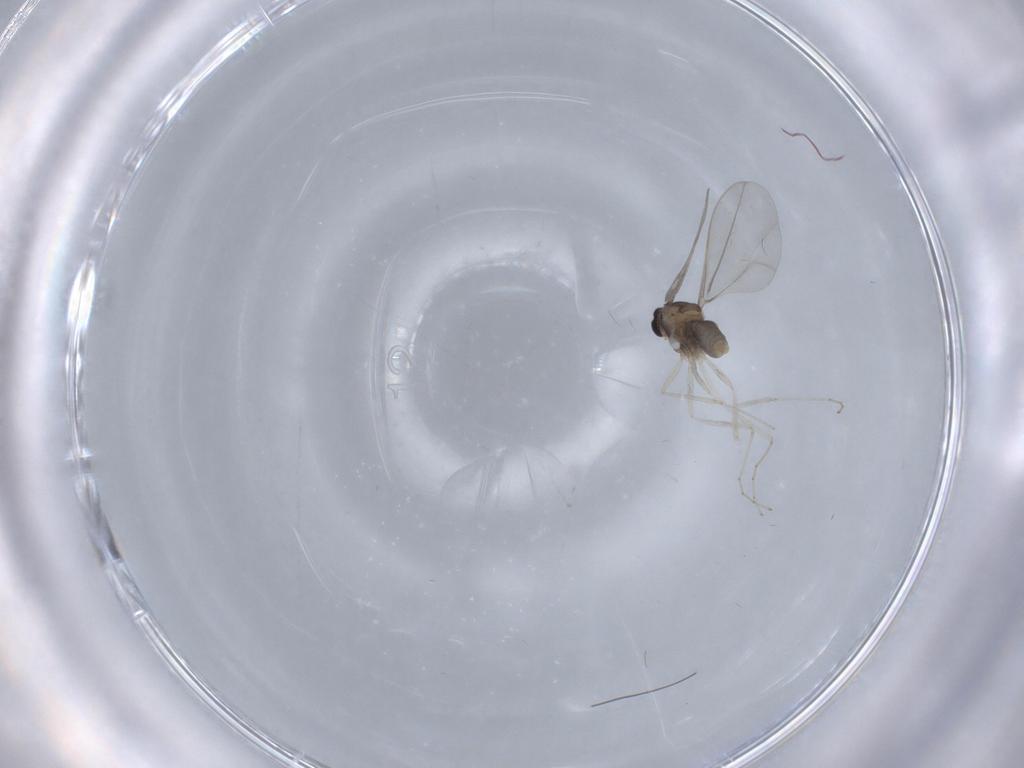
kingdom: Animalia
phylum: Arthropoda
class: Insecta
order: Diptera
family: Cecidomyiidae
